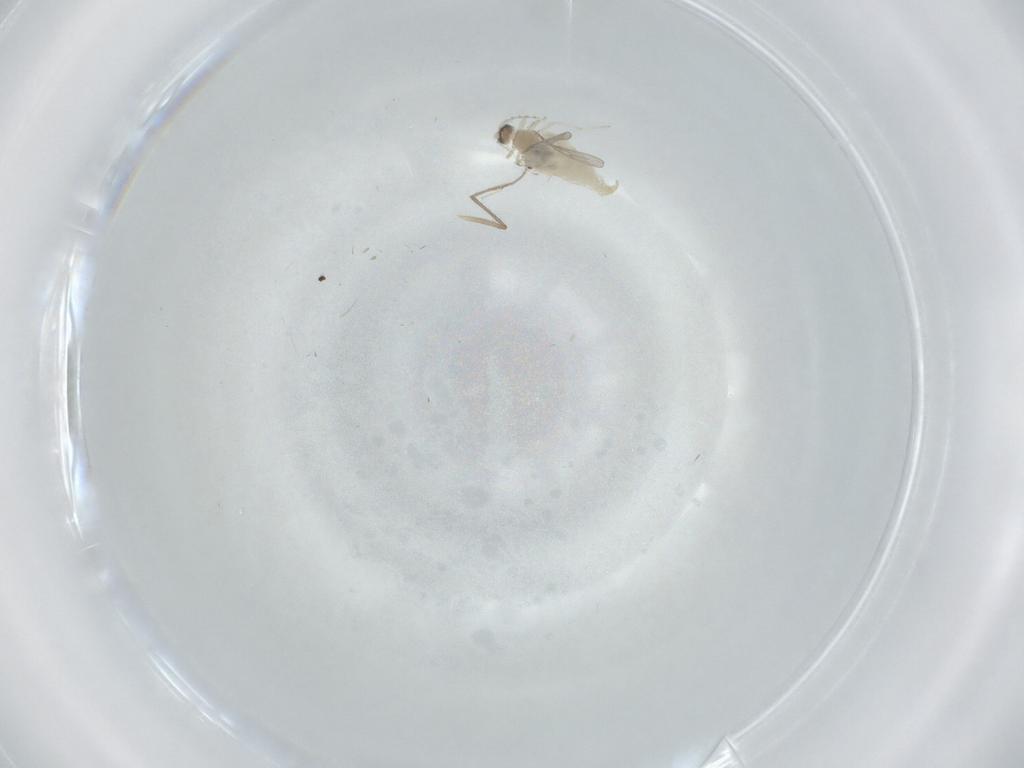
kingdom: Animalia
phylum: Arthropoda
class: Insecta
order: Diptera
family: Cecidomyiidae
